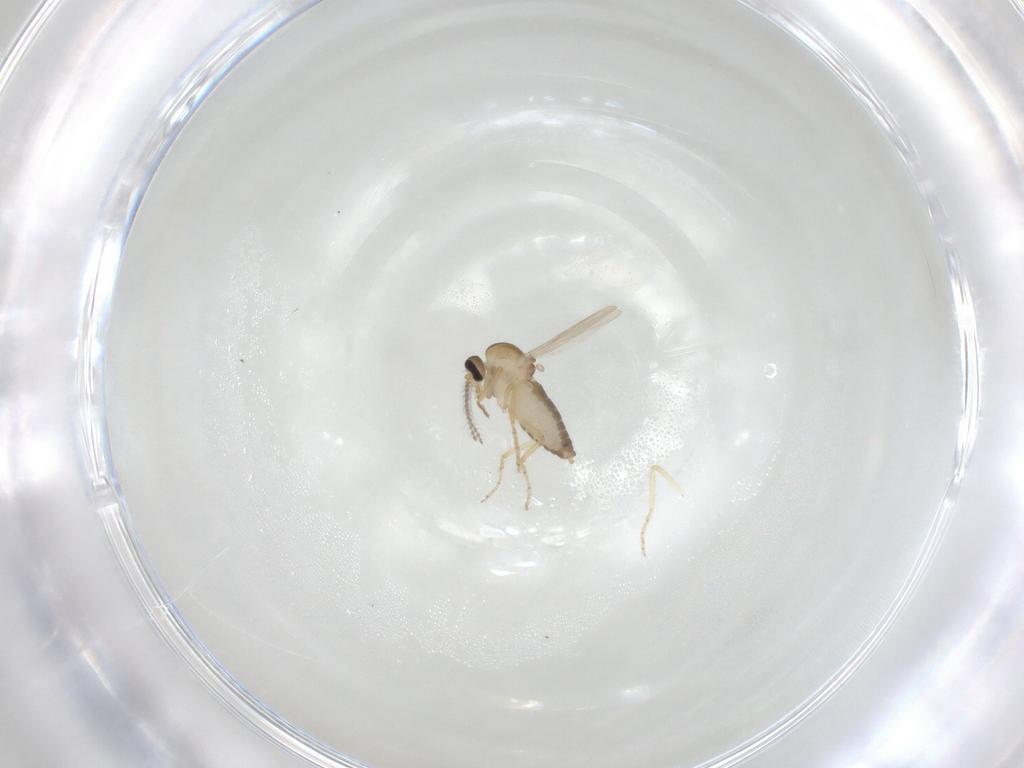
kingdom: Animalia
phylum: Arthropoda
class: Insecta
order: Diptera
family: Ceratopogonidae
